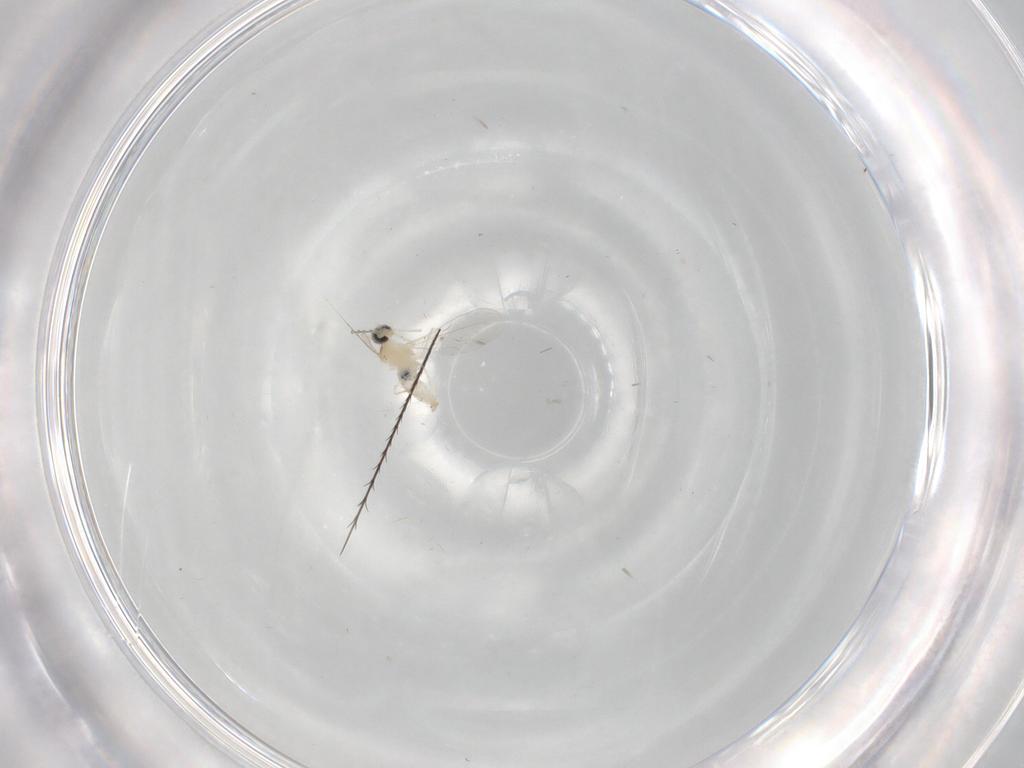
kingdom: Animalia
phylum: Arthropoda
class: Insecta
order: Diptera
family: Cecidomyiidae
